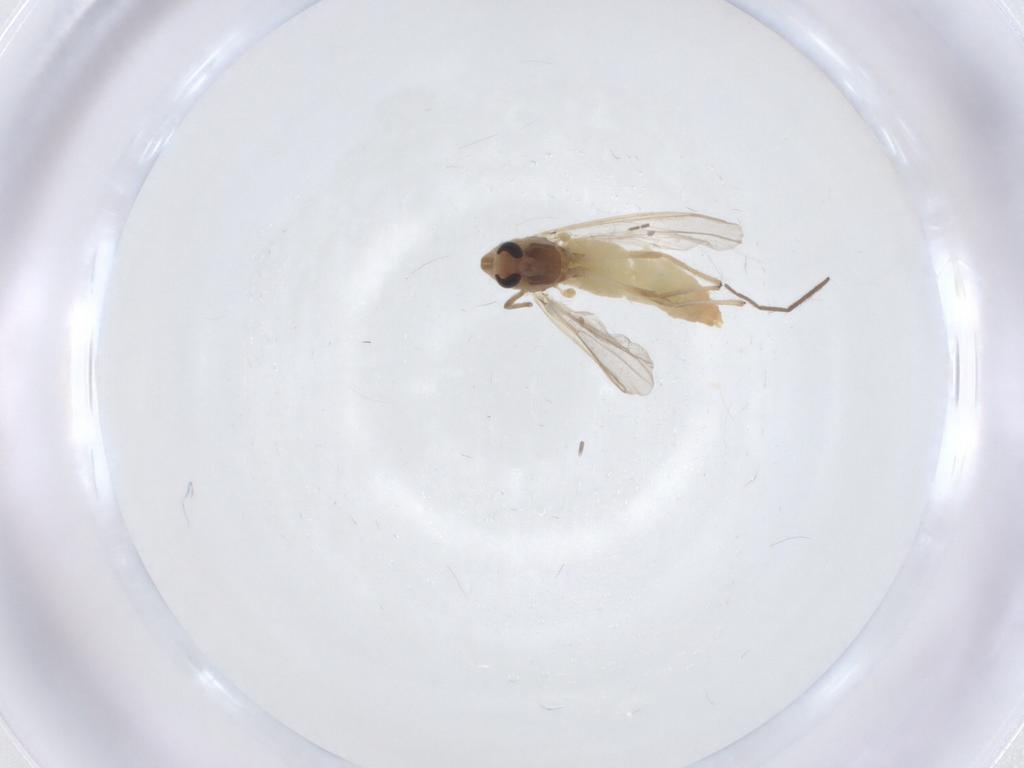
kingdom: Animalia
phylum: Arthropoda
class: Insecta
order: Diptera
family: Chironomidae
